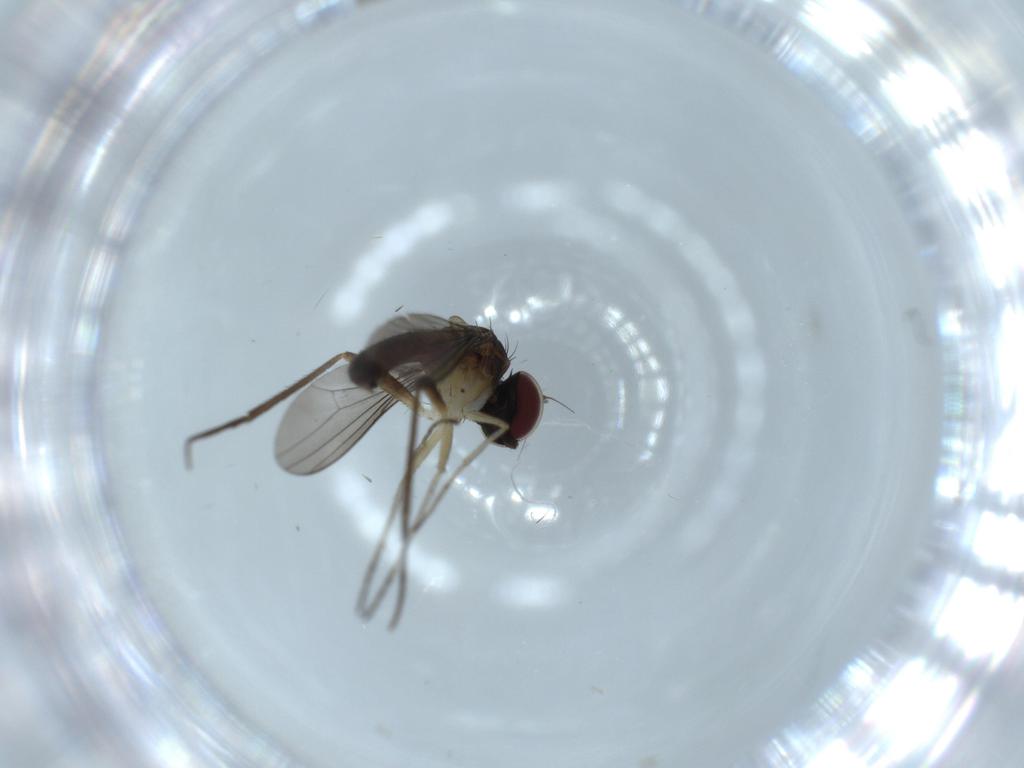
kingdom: Animalia
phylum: Arthropoda
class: Insecta
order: Diptera
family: Dolichopodidae
